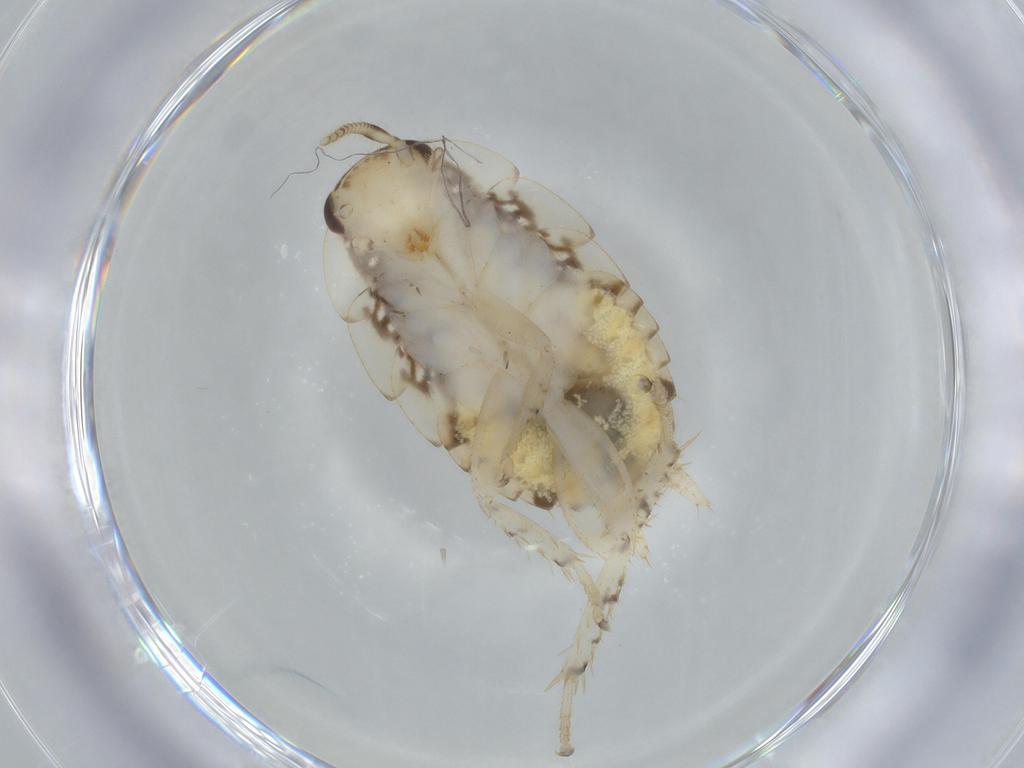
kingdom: Animalia
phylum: Arthropoda
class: Insecta
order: Blattodea
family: Ectobiidae
